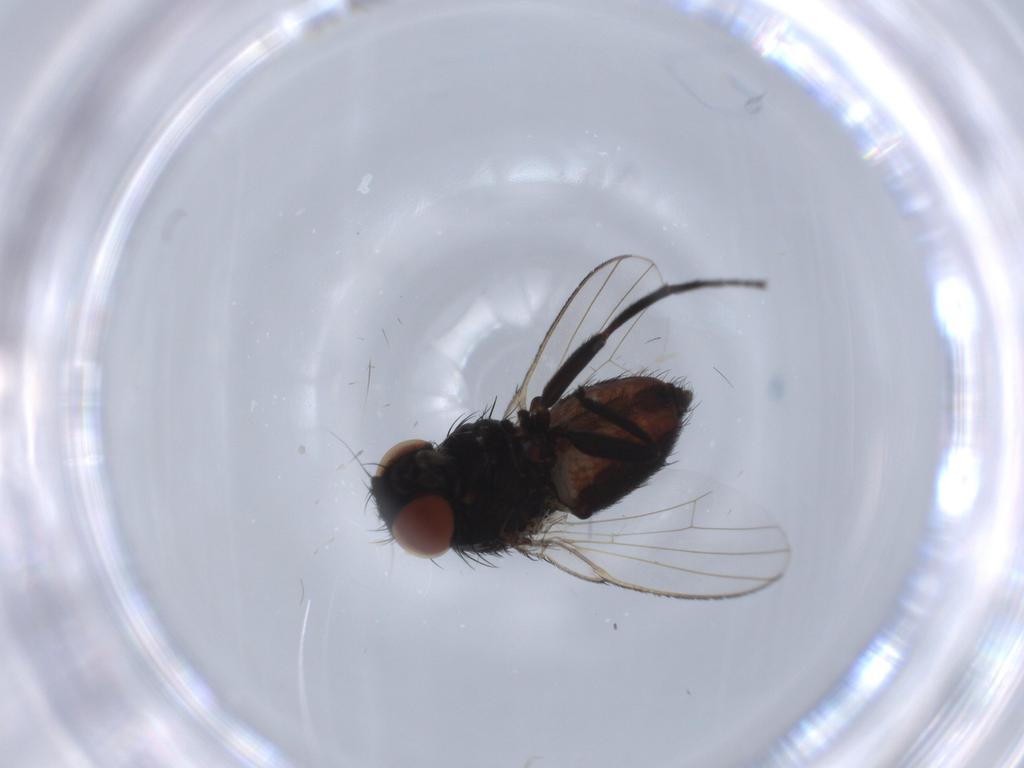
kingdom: Animalia
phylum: Arthropoda
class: Insecta
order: Diptera
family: Milichiidae
